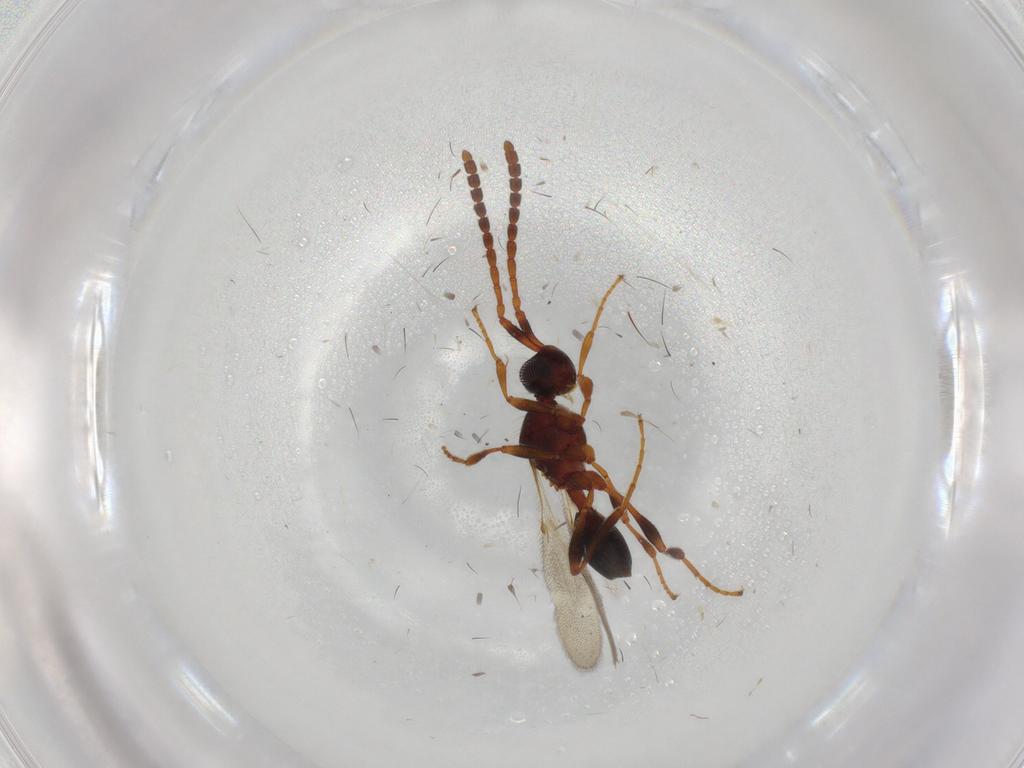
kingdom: Animalia
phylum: Arthropoda
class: Insecta
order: Hymenoptera
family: Diapriidae
